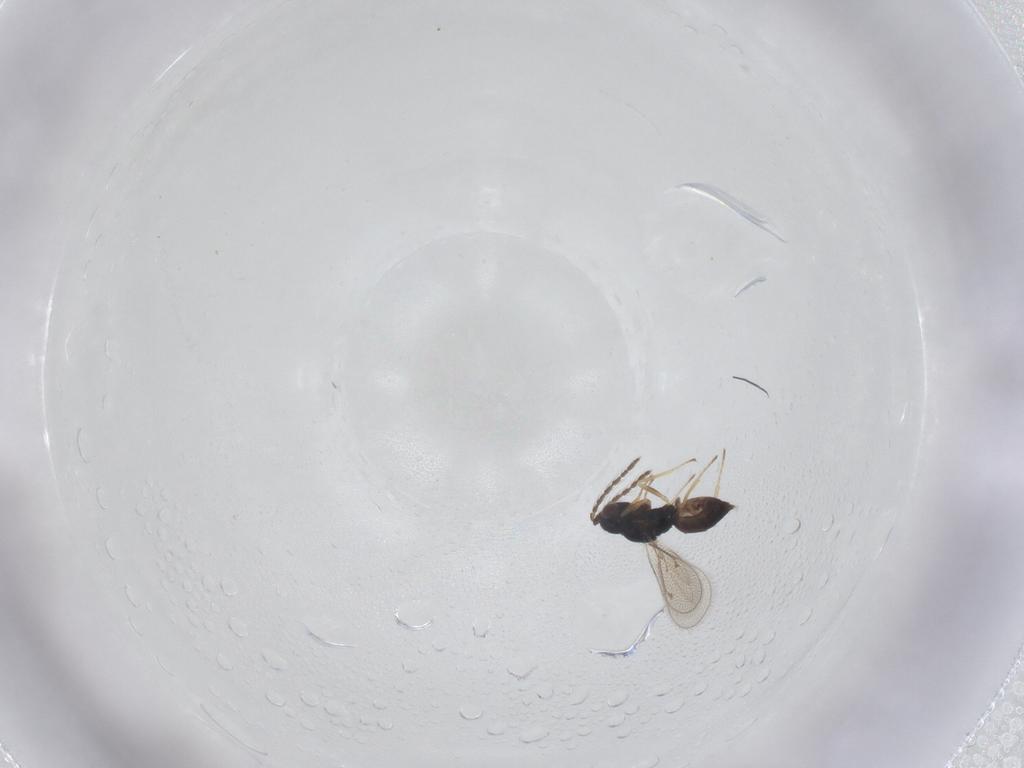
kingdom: Animalia
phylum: Arthropoda
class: Insecta
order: Hymenoptera
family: Eulophidae
